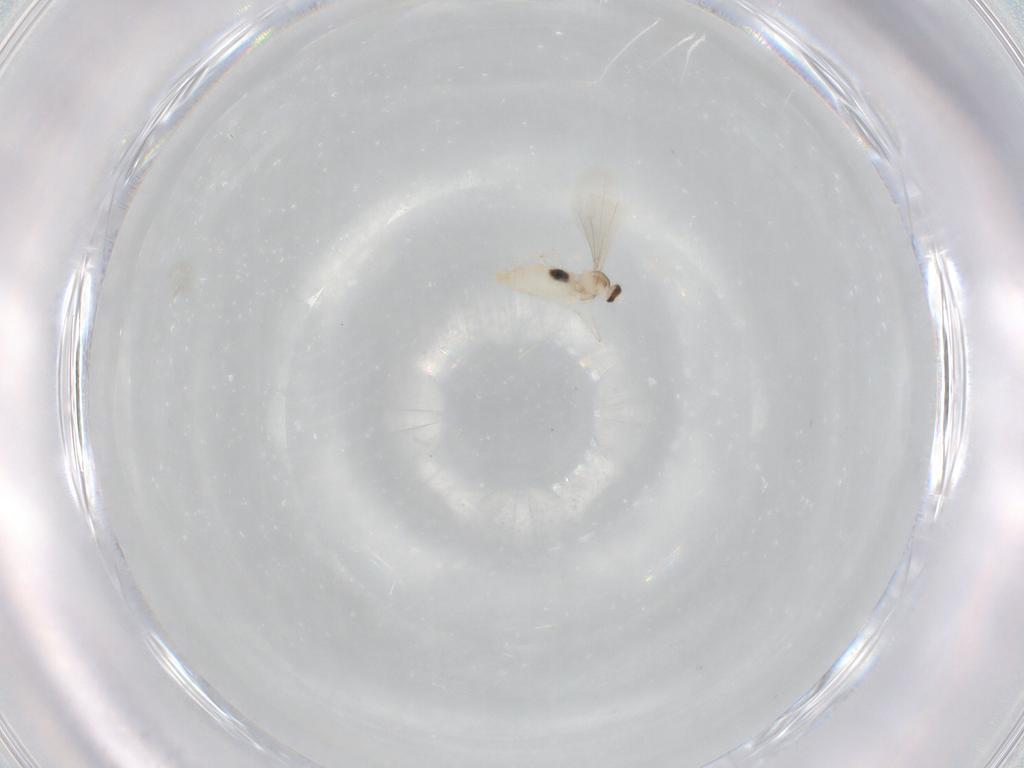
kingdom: Animalia
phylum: Arthropoda
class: Insecta
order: Diptera
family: Cecidomyiidae
